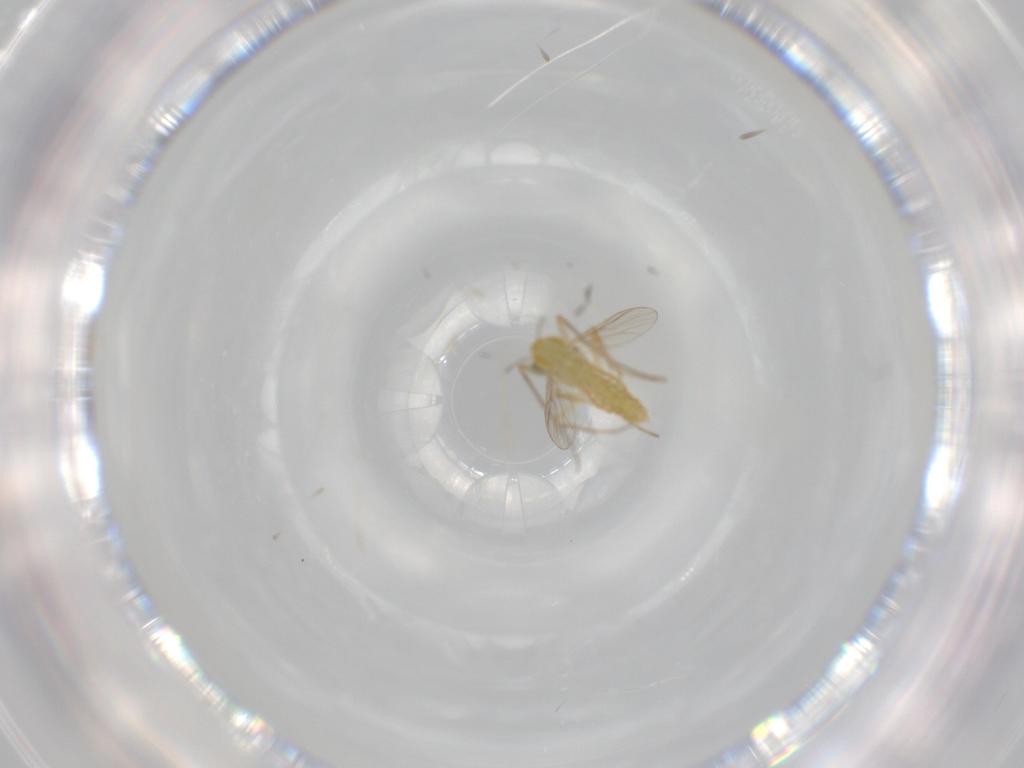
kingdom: Animalia
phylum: Arthropoda
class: Insecta
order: Diptera
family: Chironomidae
